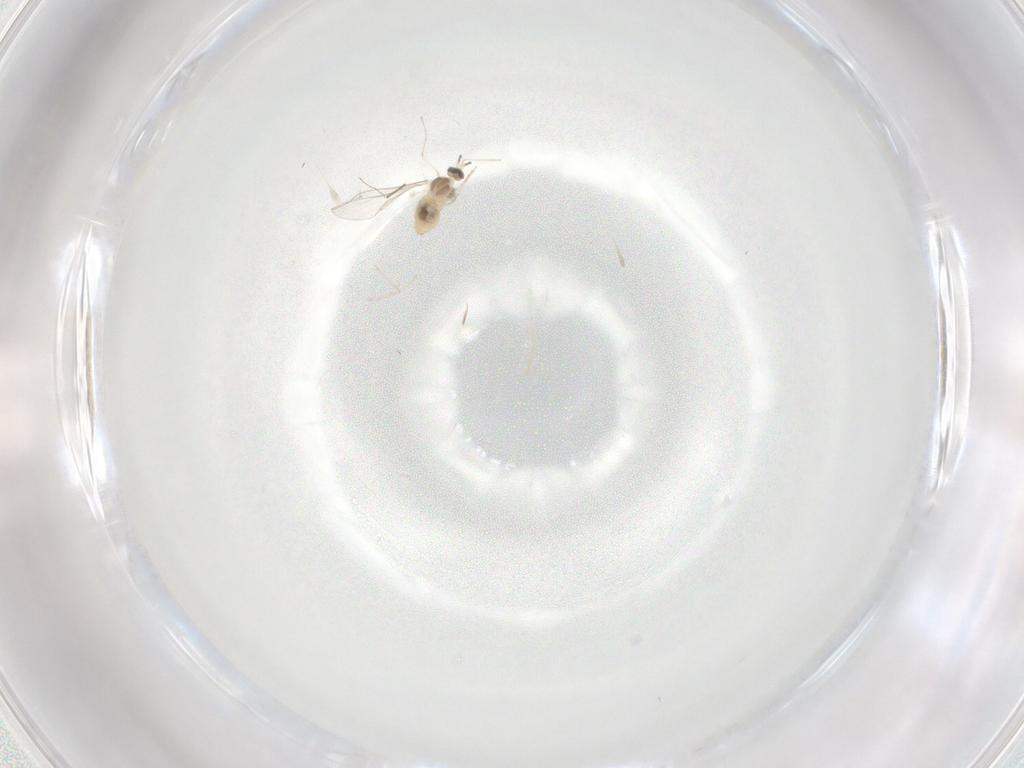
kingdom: Animalia
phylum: Arthropoda
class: Insecta
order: Diptera
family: Cecidomyiidae
